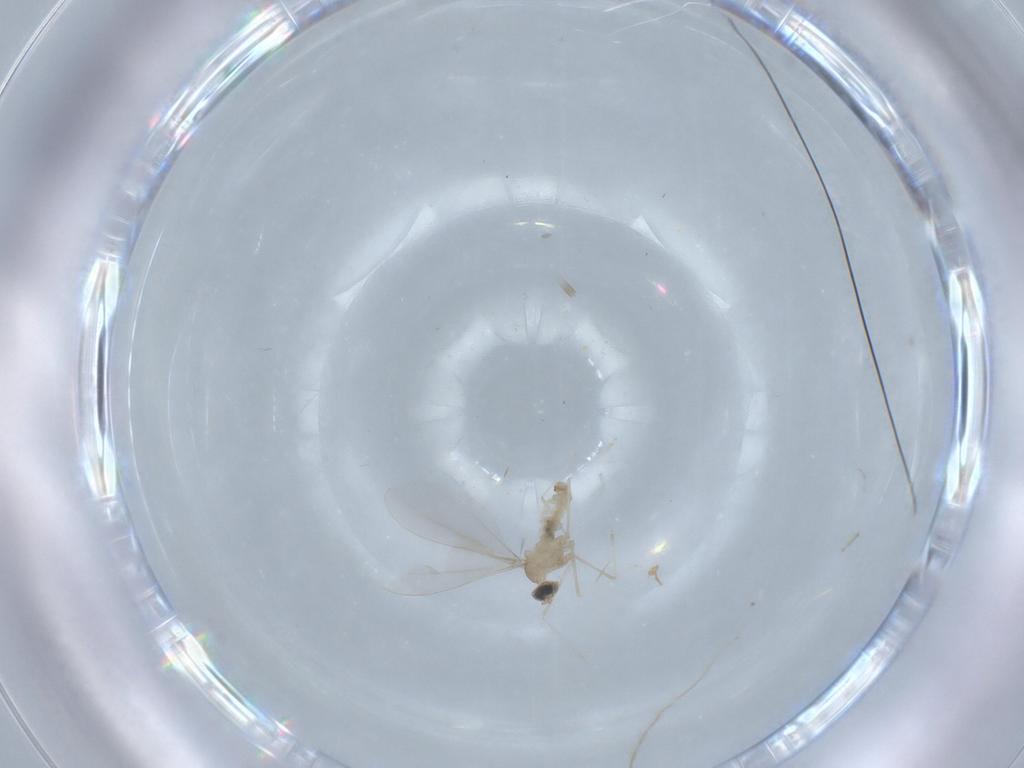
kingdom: Animalia
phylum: Arthropoda
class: Insecta
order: Diptera
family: Cecidomyiidae
